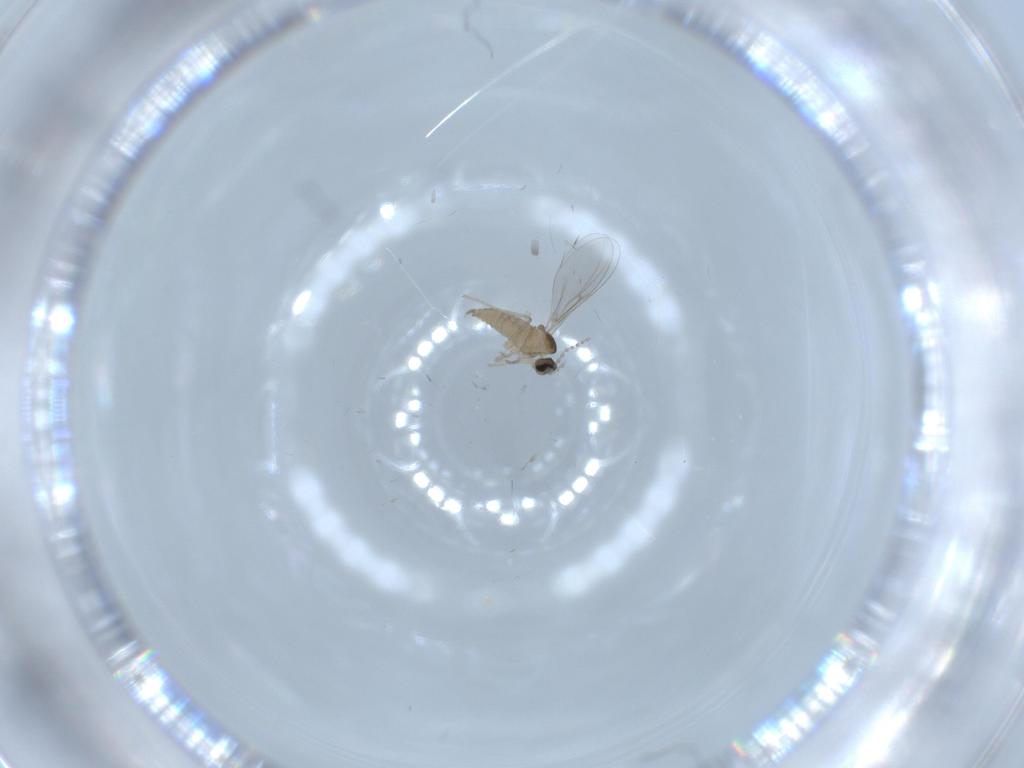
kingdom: Animalia
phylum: Arthropoda
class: Insecta
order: Diptera
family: Cecidomyiidae
